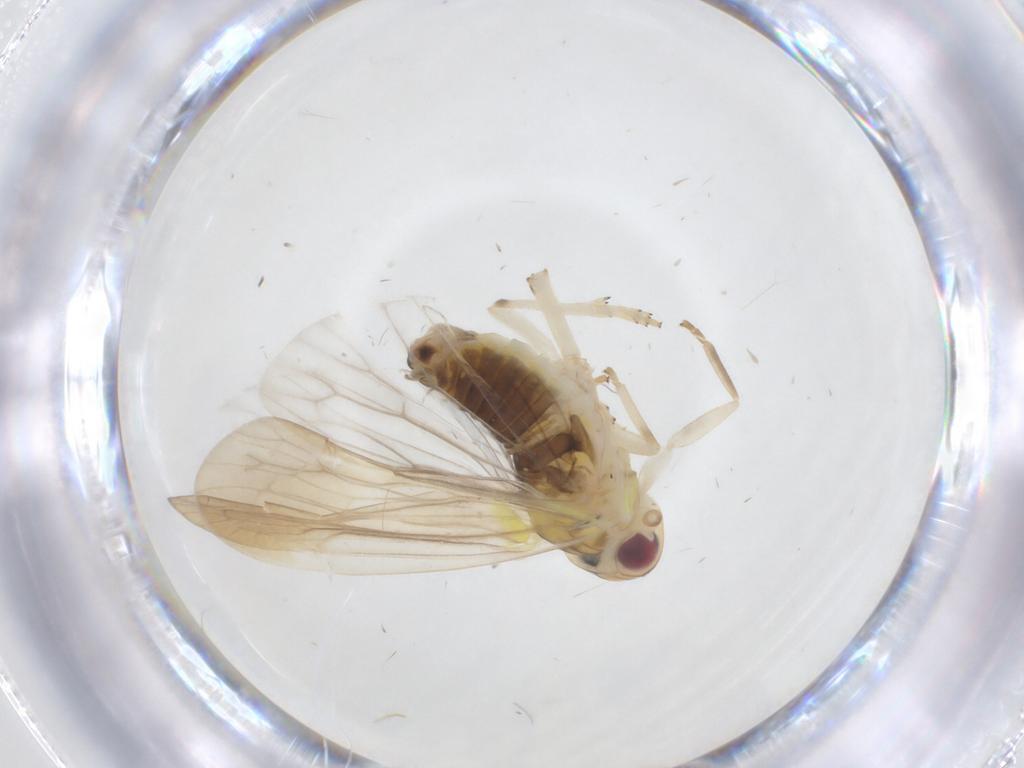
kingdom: Animalia
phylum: Arthropoda
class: Insecta
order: Hemiptera
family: Achilidae
